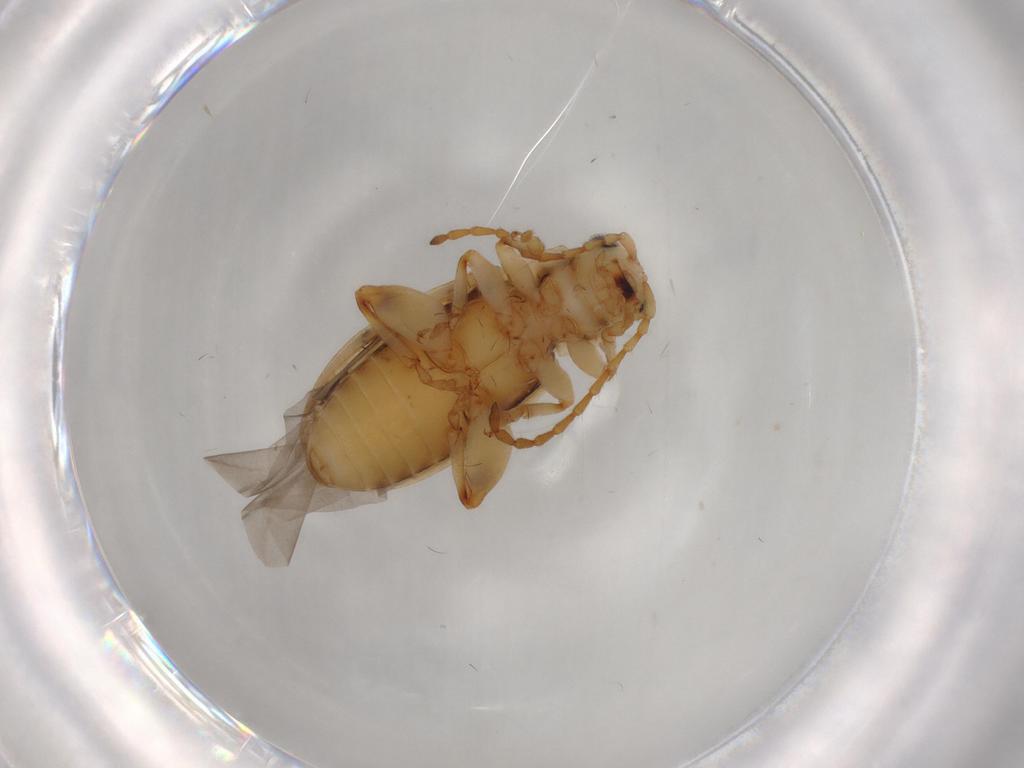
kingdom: Animalia
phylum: Arthropoda
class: Insecta
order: Coleoptera
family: Chrysomelidae
